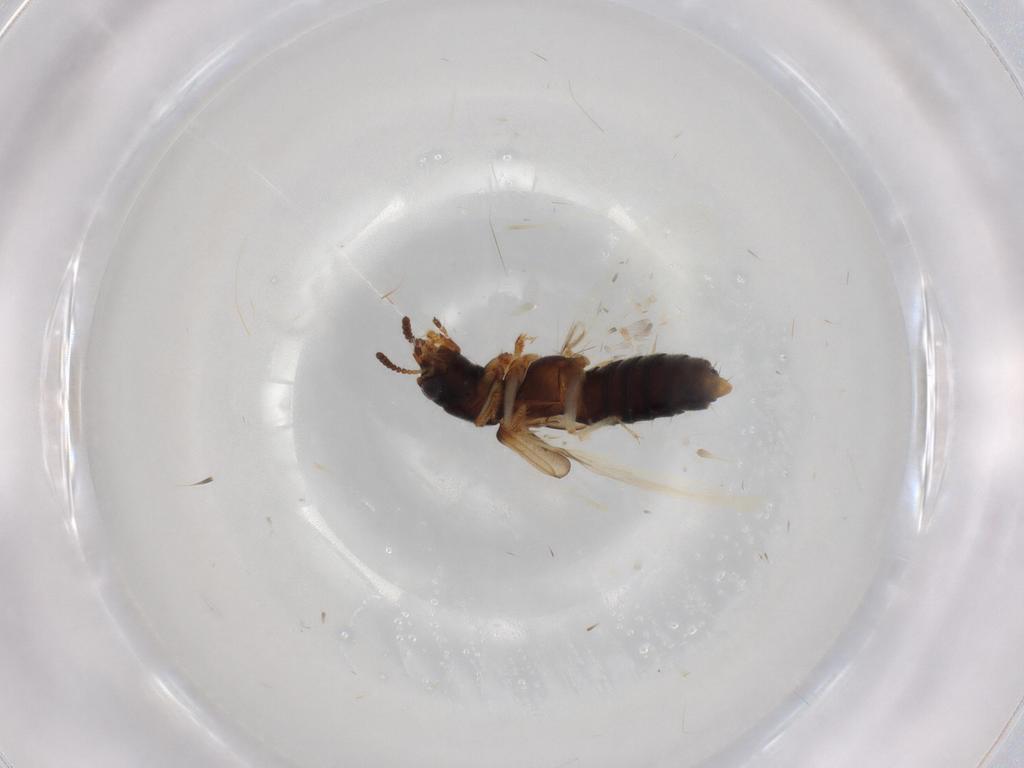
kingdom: Animalia
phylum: Arthropoda
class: Insecta
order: Coleoptera
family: Staphylinidae
